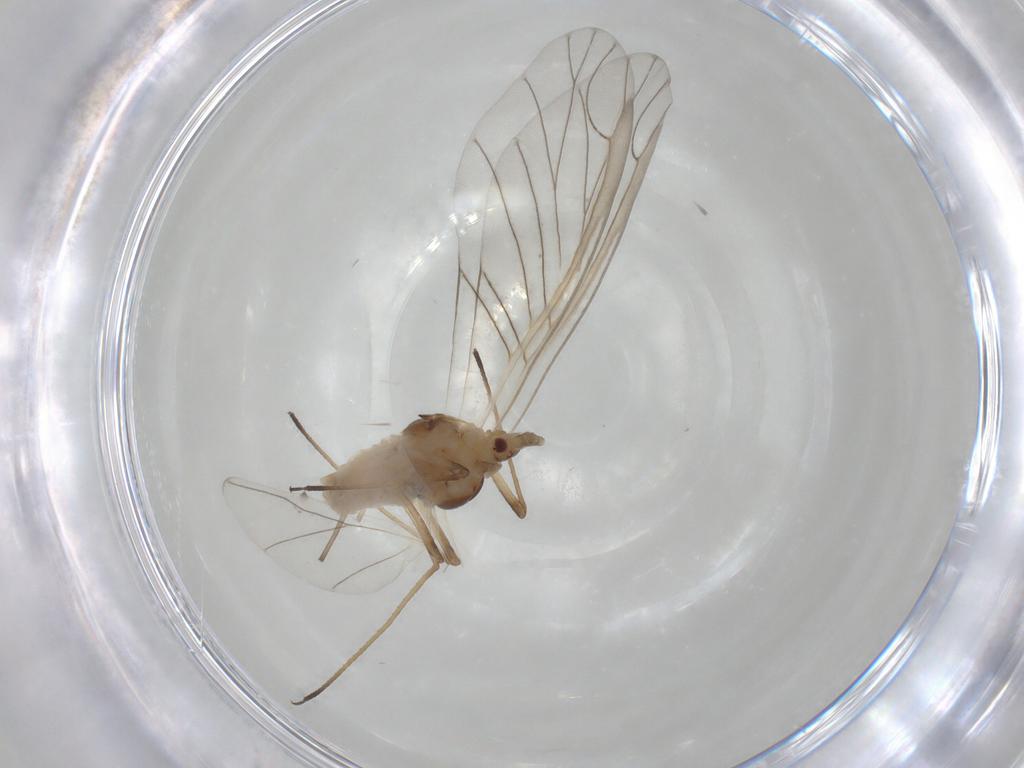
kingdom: Animalia
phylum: Arthropoda
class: Insecta
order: Hemiptera
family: Aphididae
